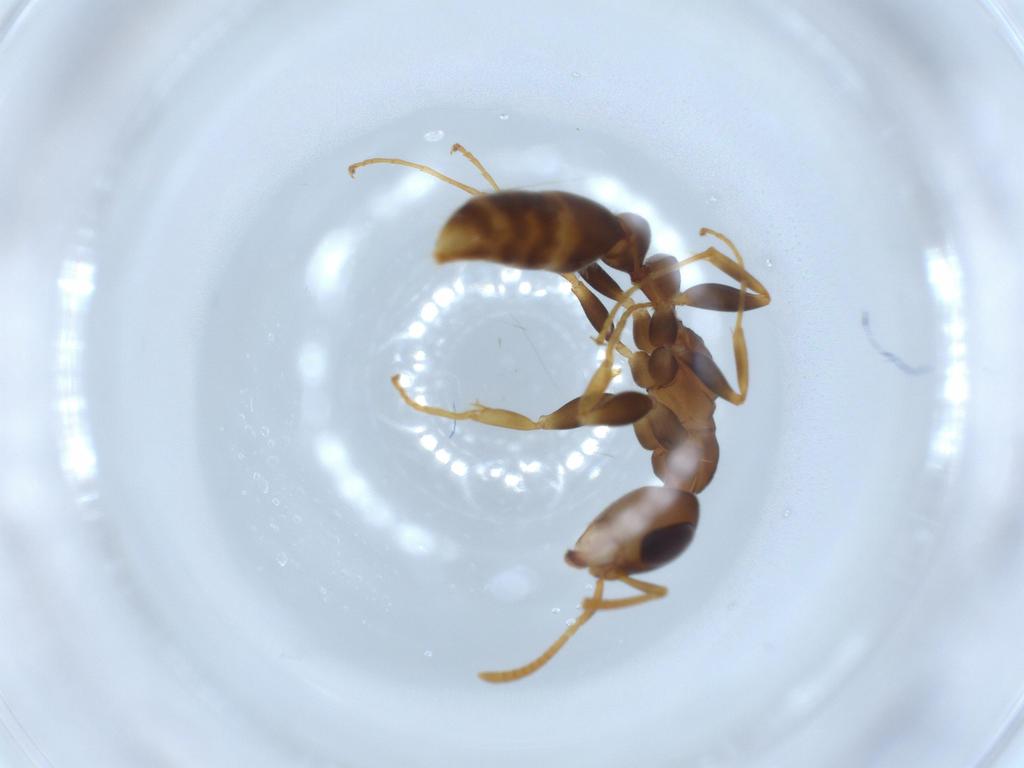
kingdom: Animalia
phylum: Arthropoda
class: Insecta
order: Hymenoptera
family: Formicidae
